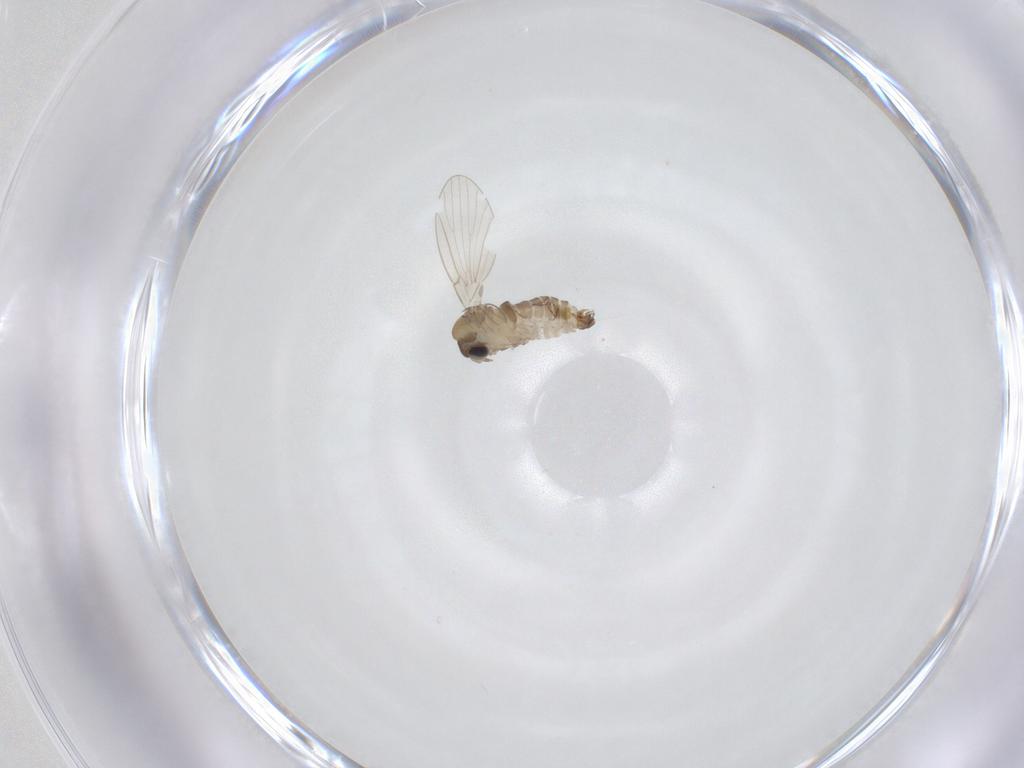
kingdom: Animalia
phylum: Arthropoda
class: Insecta
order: Diptera
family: Psychodidae
